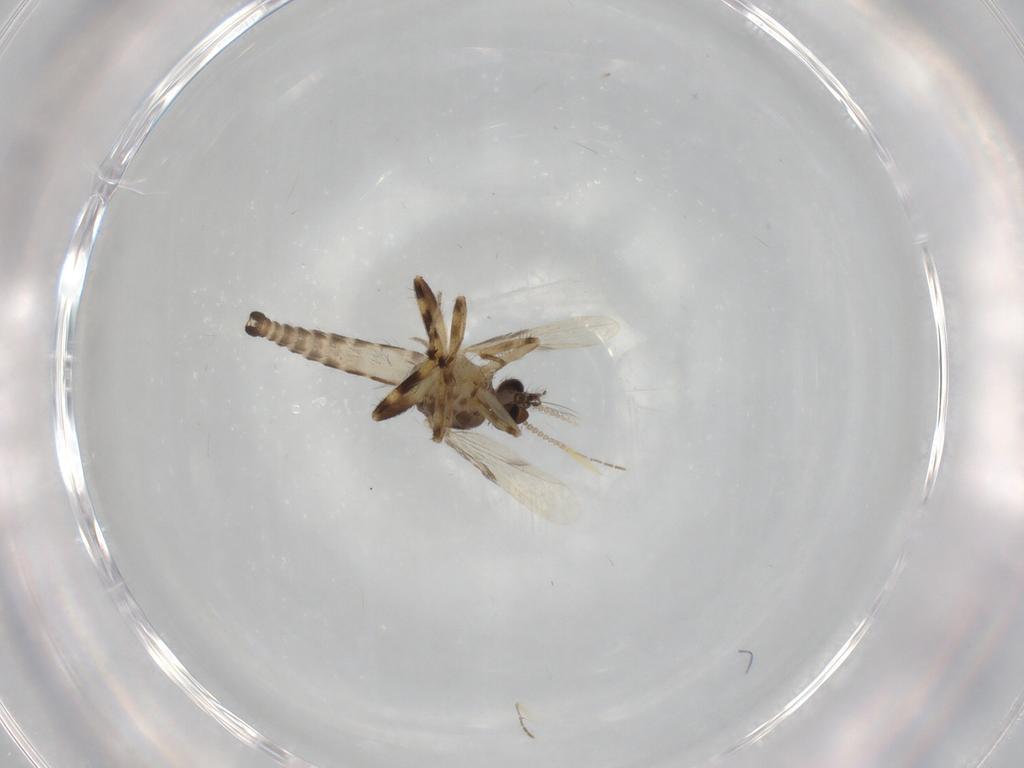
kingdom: Animalia
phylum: Arthropoda
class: Insecta
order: Diptera
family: Ceratopogonidae
